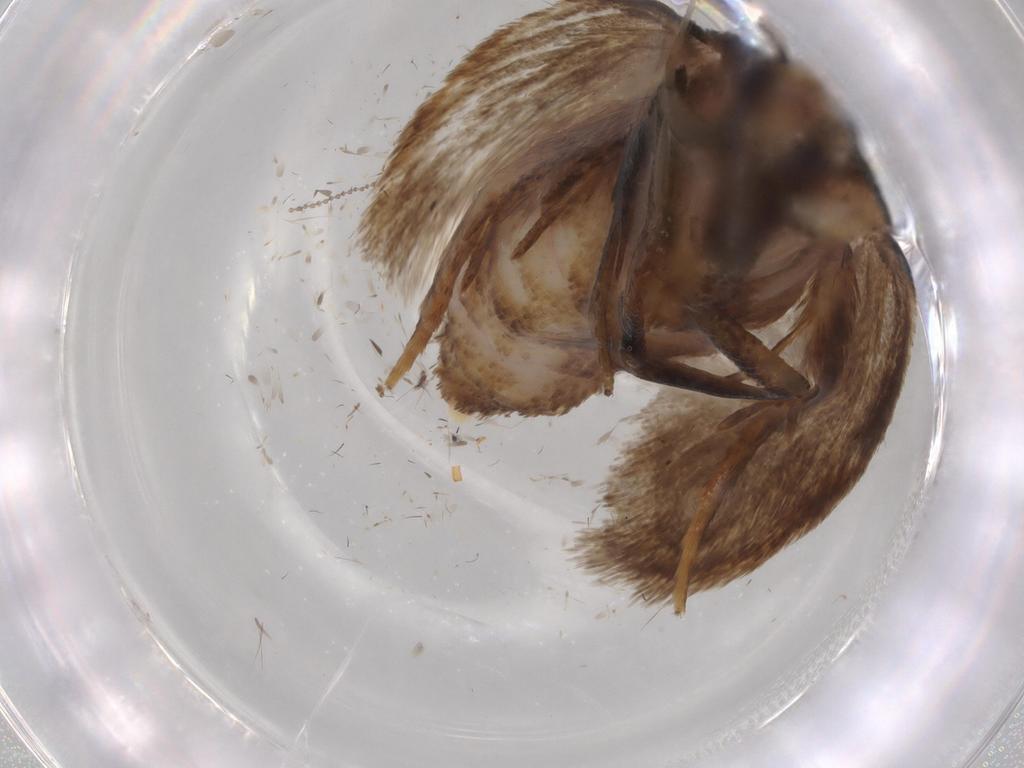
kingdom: Animalia
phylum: Arthropoda
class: Insecta
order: Lepidoptera
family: Oecophoridae
